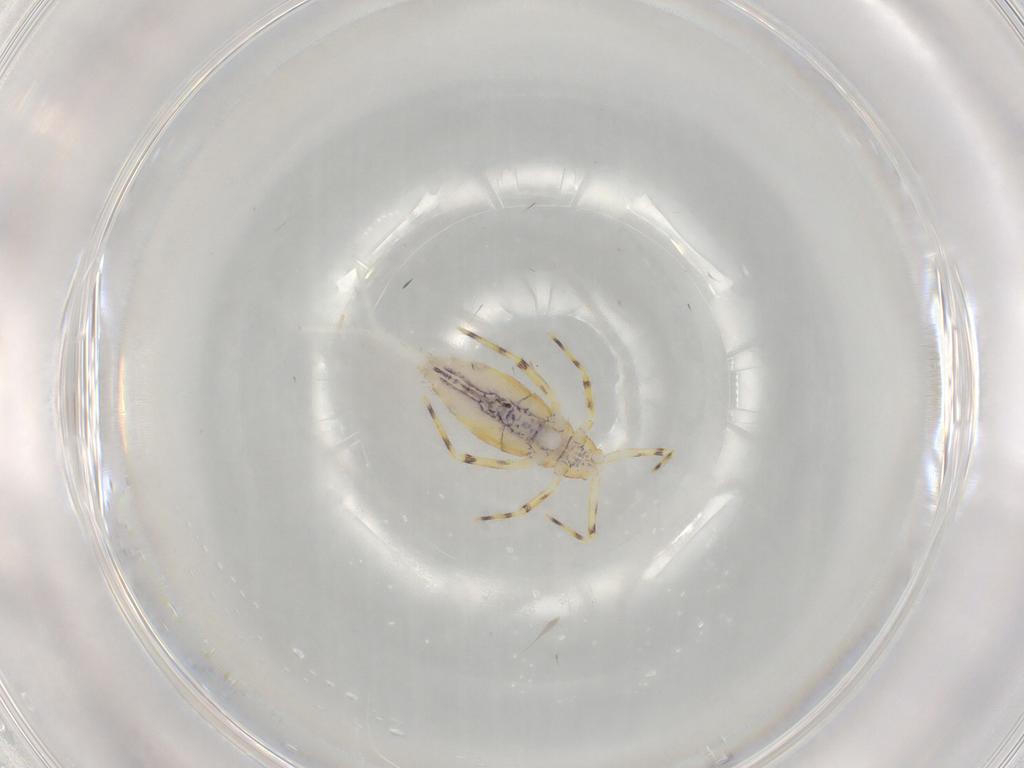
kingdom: Animalia
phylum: Arthropoda
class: Collembola
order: Entomobryomorpha
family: Entomobryidae
